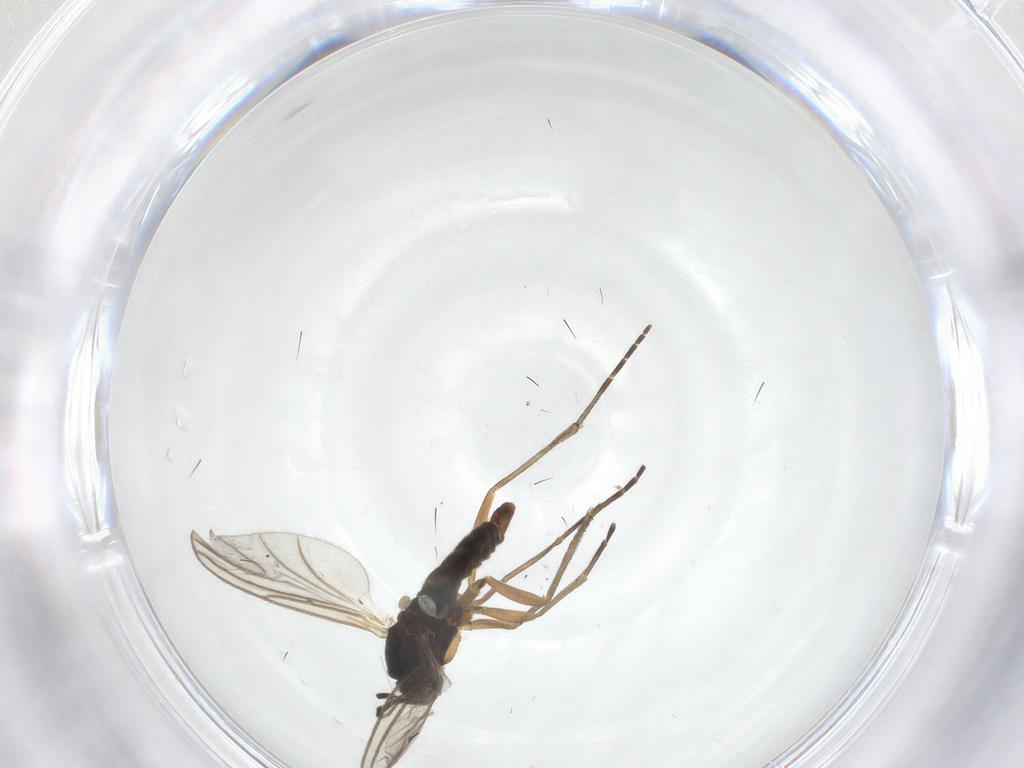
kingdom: Animalia
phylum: Arthropoda
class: Insecta
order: Diptera
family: Sciaridae
